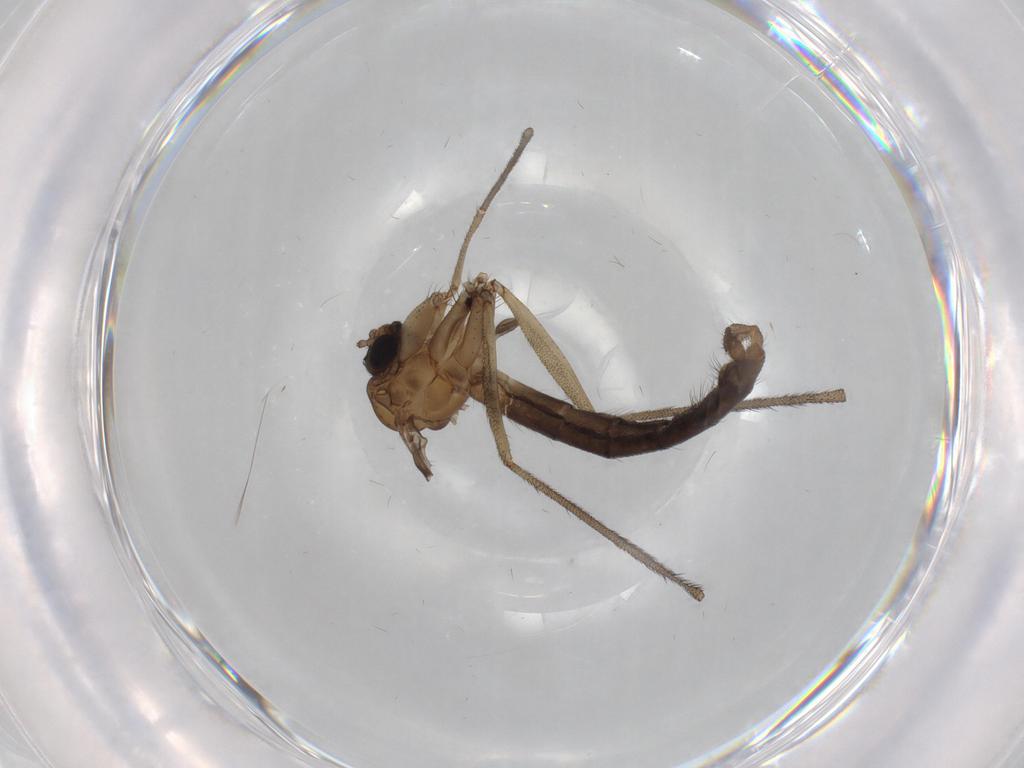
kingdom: Animalia
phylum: Arthropoda
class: Insecta
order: Diptera
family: Ditomyiidae
